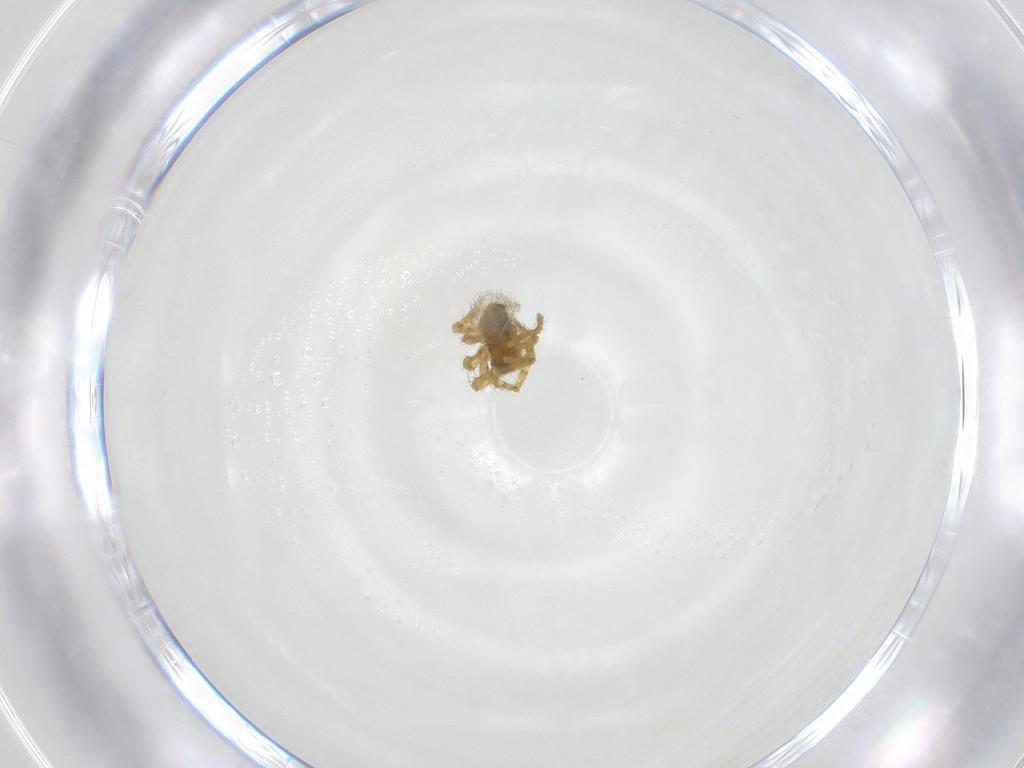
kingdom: Animalia
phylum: Arthropoda
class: Arachnida
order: Araneae
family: Theridiidae
